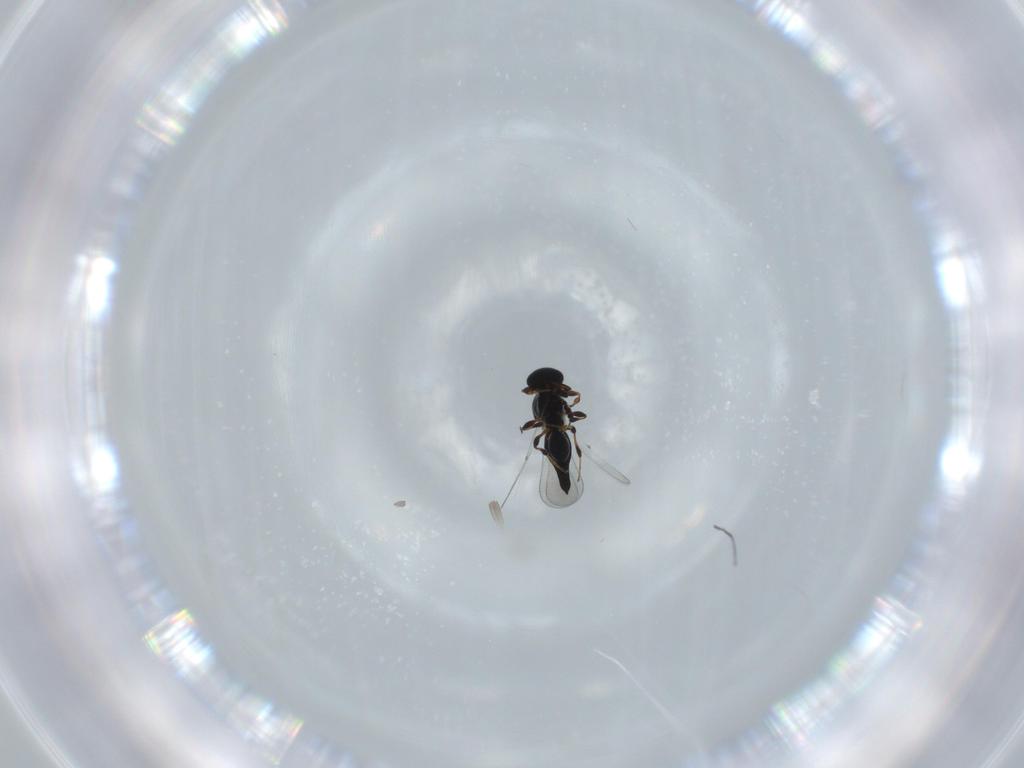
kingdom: Animalia
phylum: Arthropoda
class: Insecta
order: Hymenoptera
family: Platygastridae
